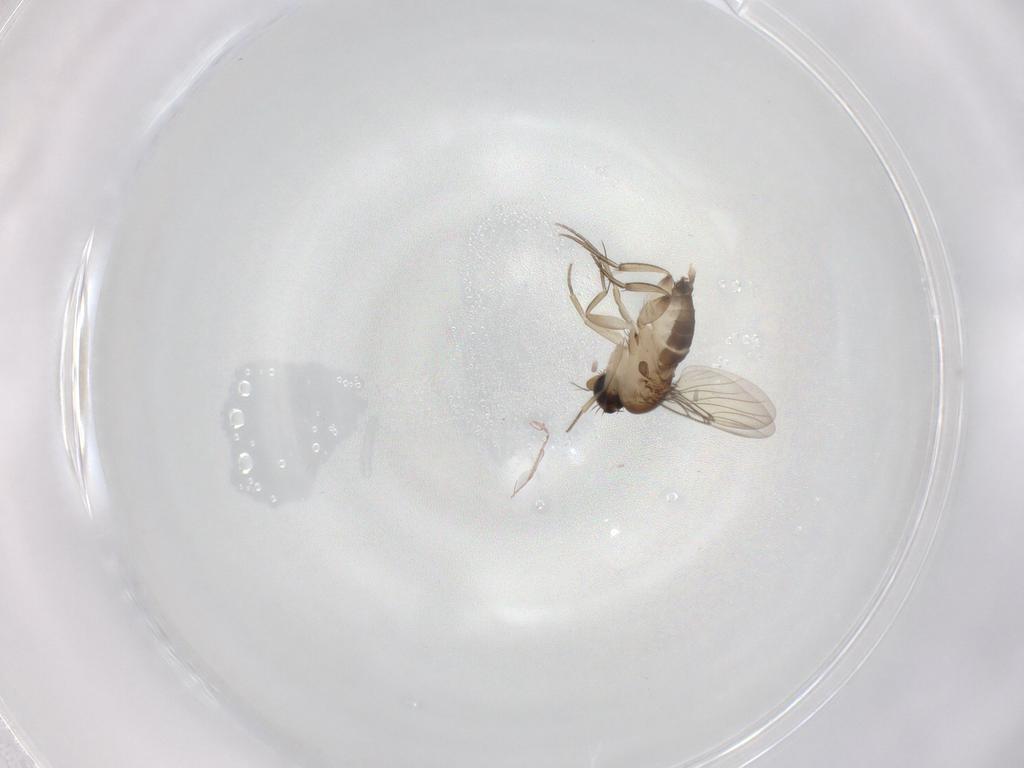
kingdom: Animalia
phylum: Arthropoda
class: Insecta
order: Diptera
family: Phoridae
